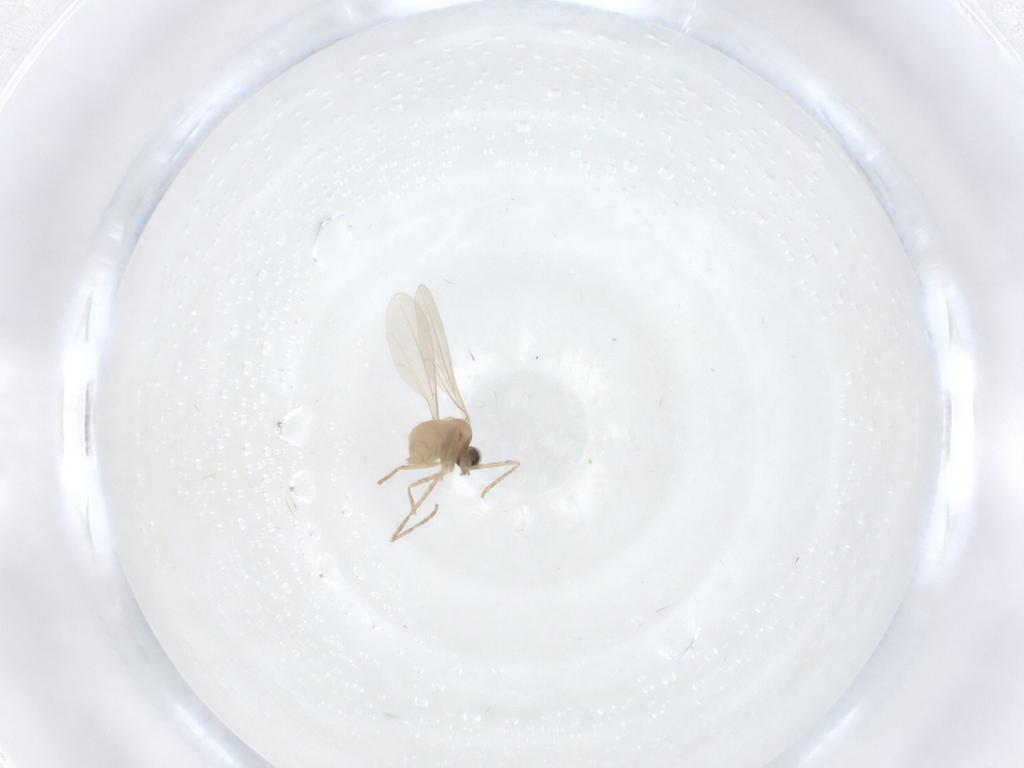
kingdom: Animalia
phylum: Arthropoda
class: Insecta
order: Diptera
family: Cecidomyiidae
